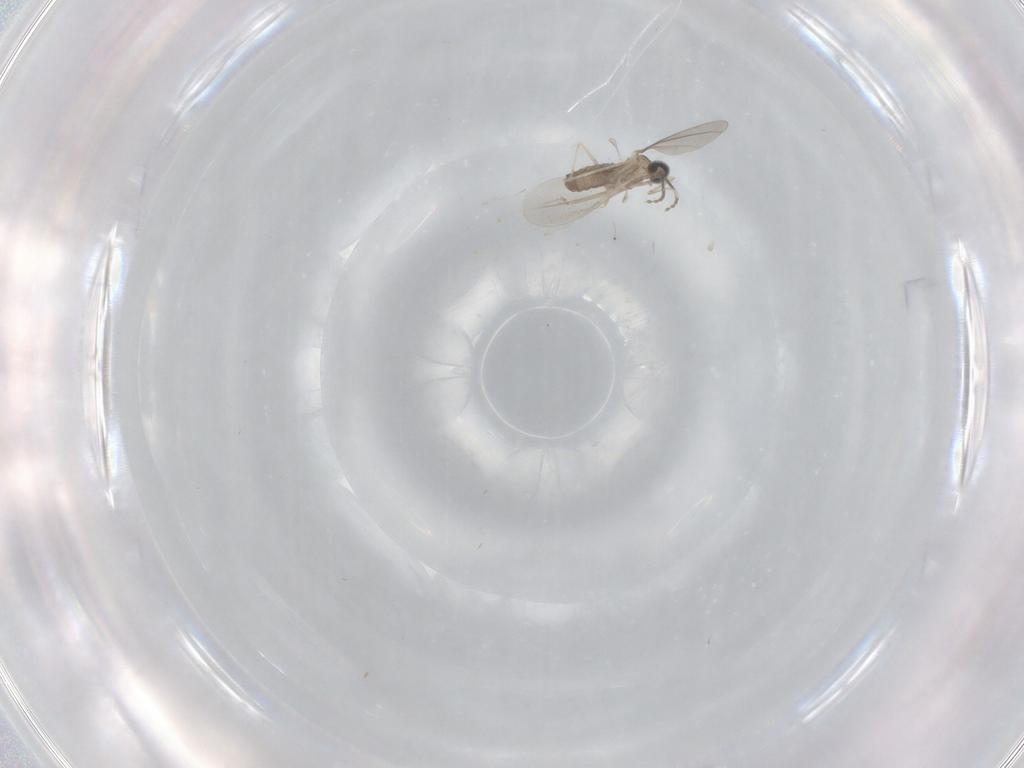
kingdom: Animalia
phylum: Arthropoda
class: Insecta
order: Diptera
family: Cecidomyiidae
